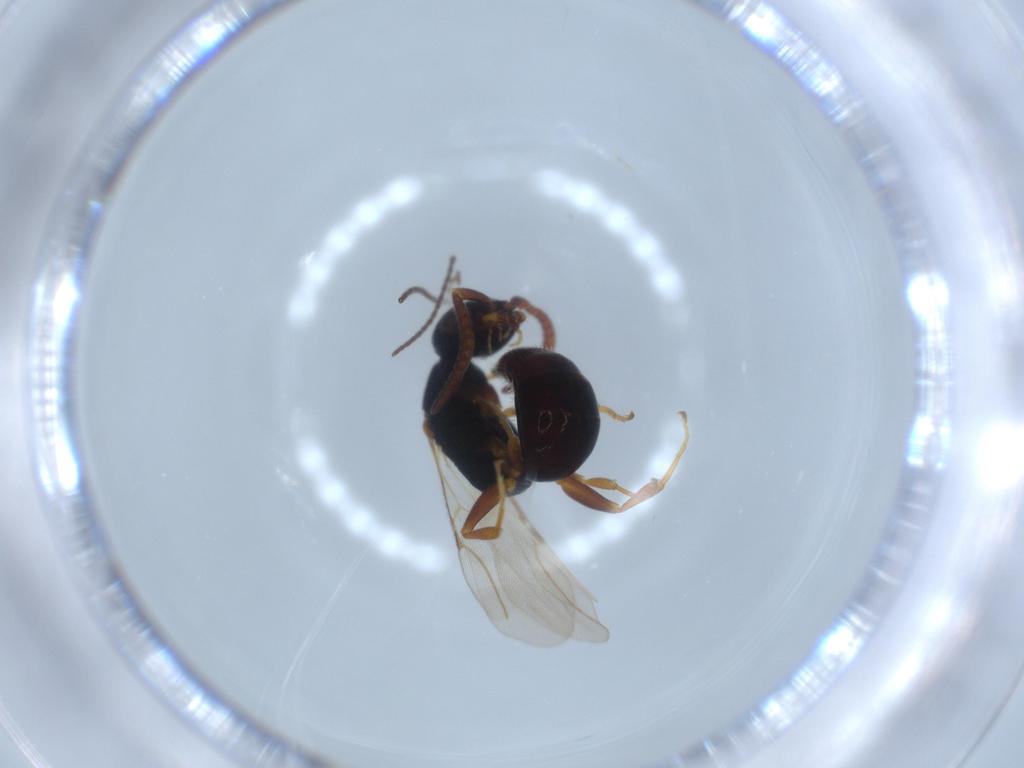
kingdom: Animalia
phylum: Arthropoda
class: Insecta
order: Hymenoptera
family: Bethylidae
